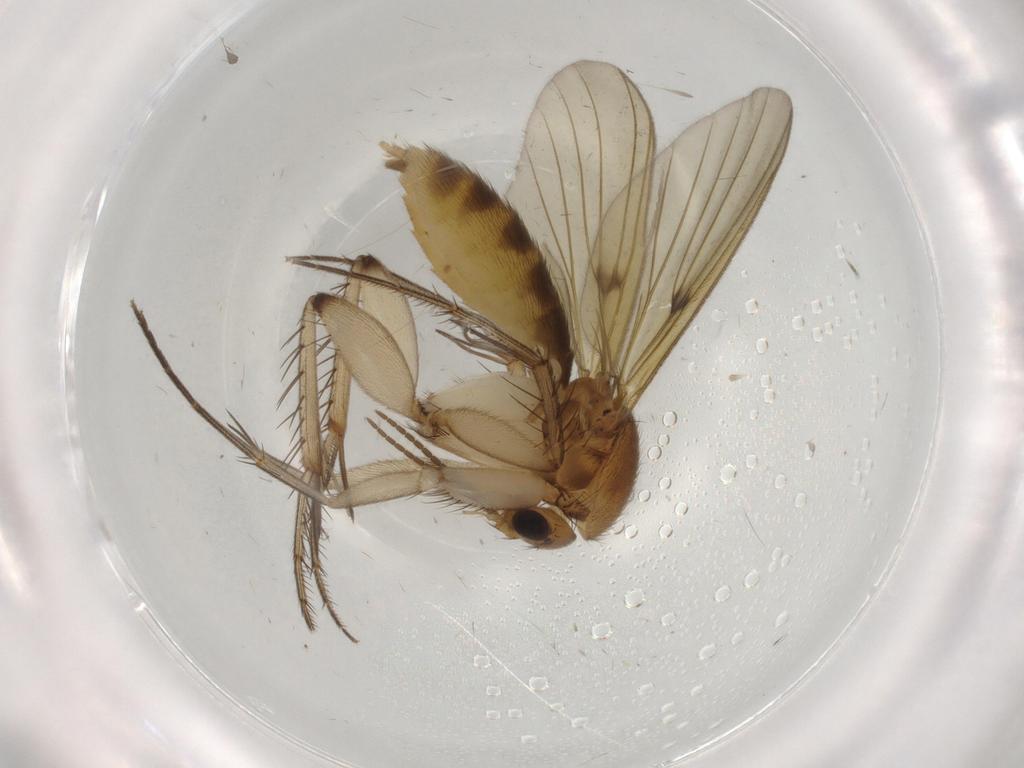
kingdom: Animalia
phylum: Arthropoda
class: Insecta
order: Diptera
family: Mycetophilidae
